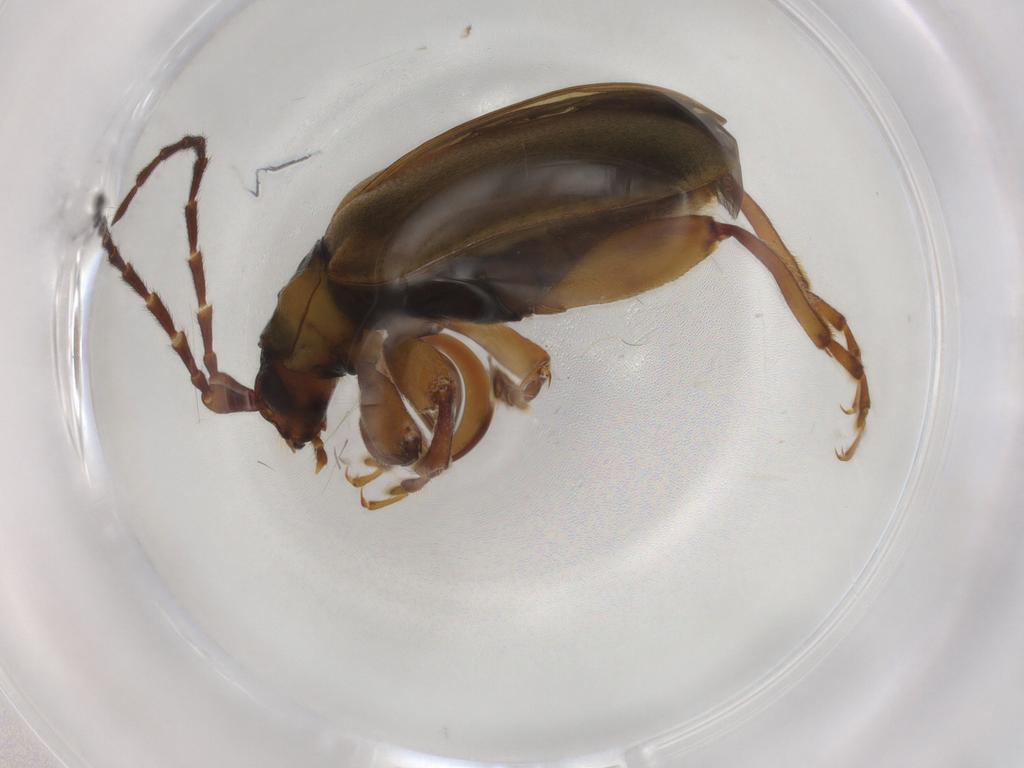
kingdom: Animalia
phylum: Arthropoda
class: Insecta
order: Coleoptera
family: Chrysomelidae
